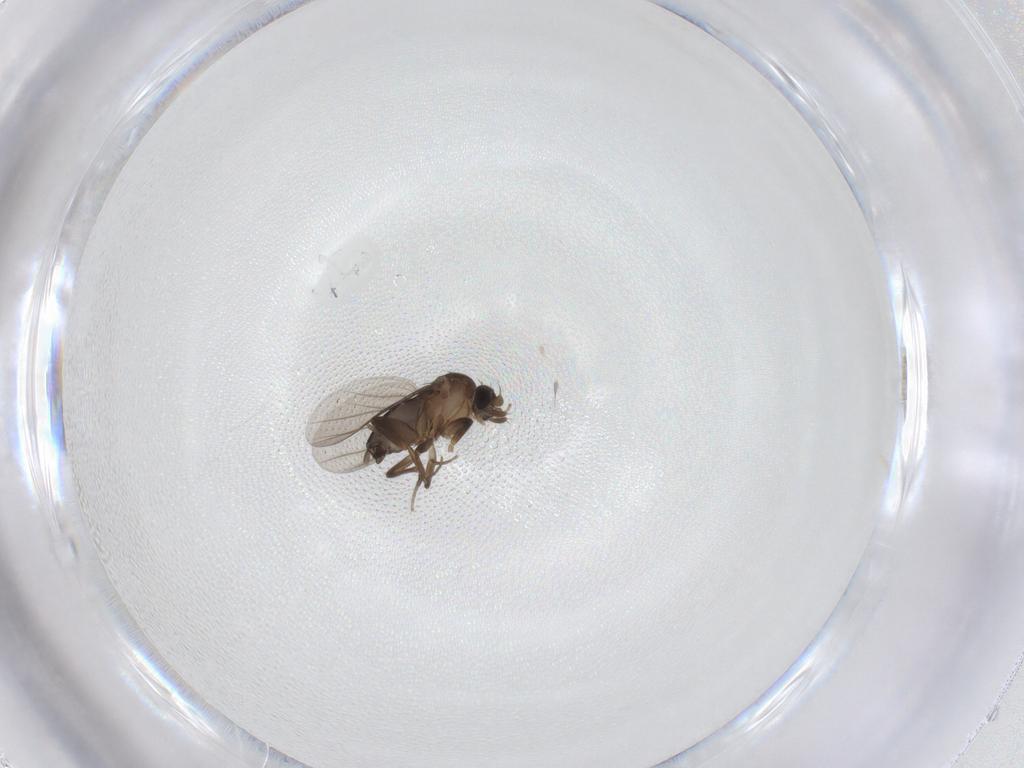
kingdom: Animalia
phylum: Arthropoda
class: Insecta
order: Diptera
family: Phoridae
